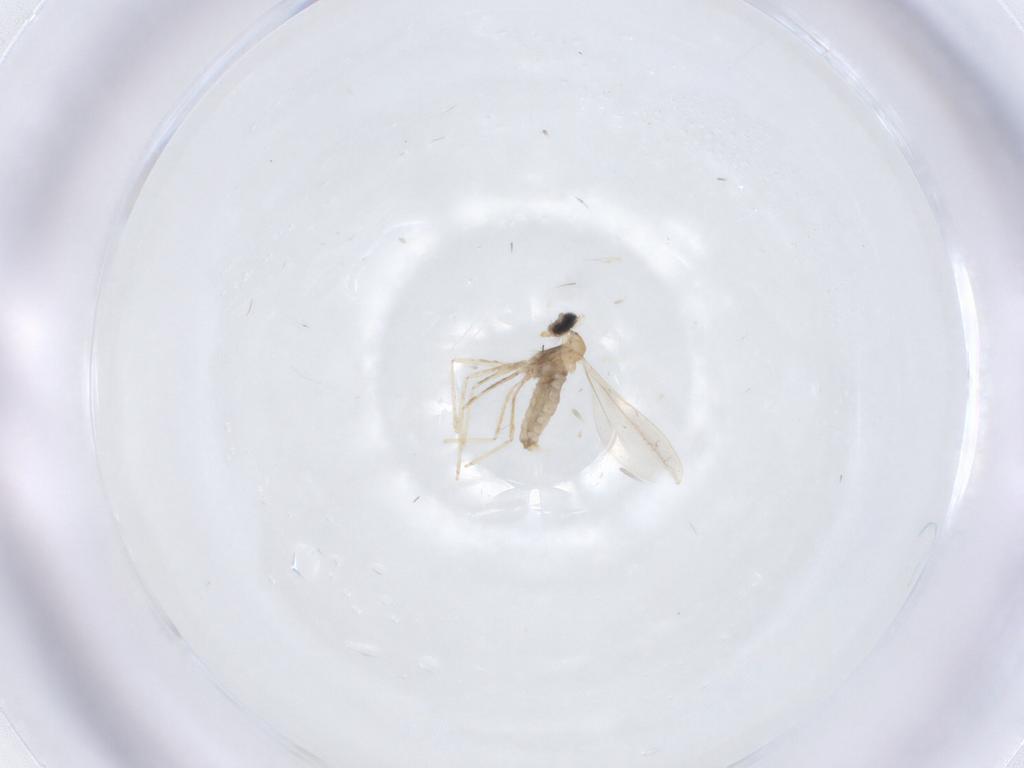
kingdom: Animalia
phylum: Arthropoda
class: Insecta
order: Diptera
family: Cecidomyiidae
